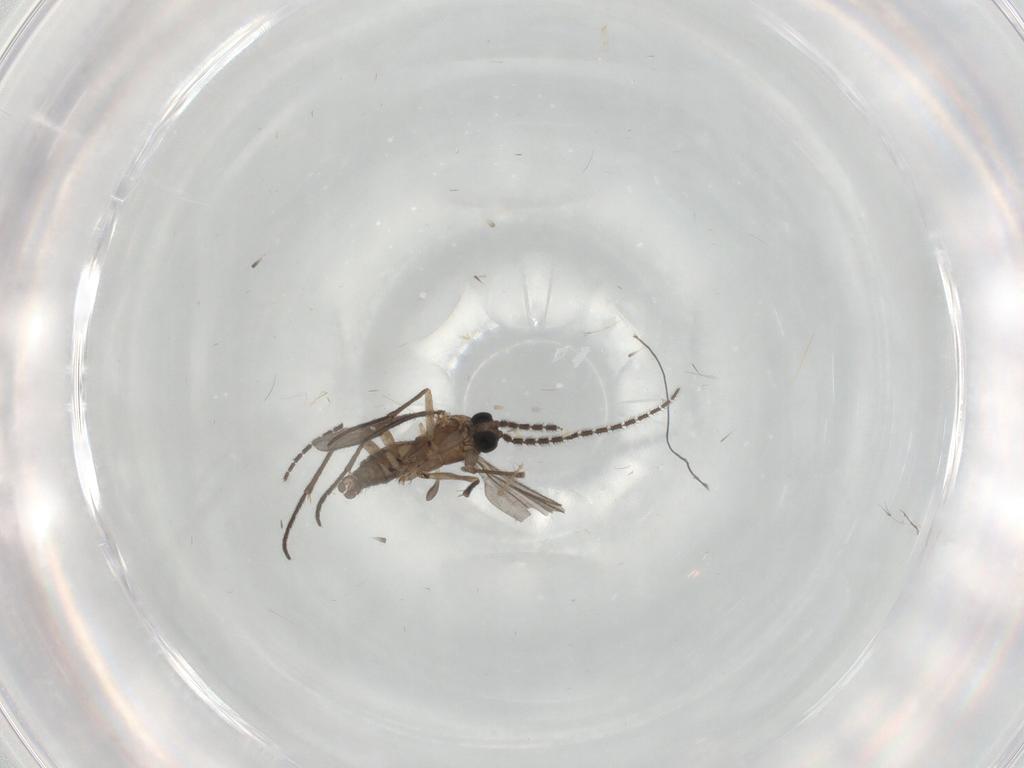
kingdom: Animalia
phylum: Arthropoda
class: Insecta
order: Diptera
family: Sciaridae
